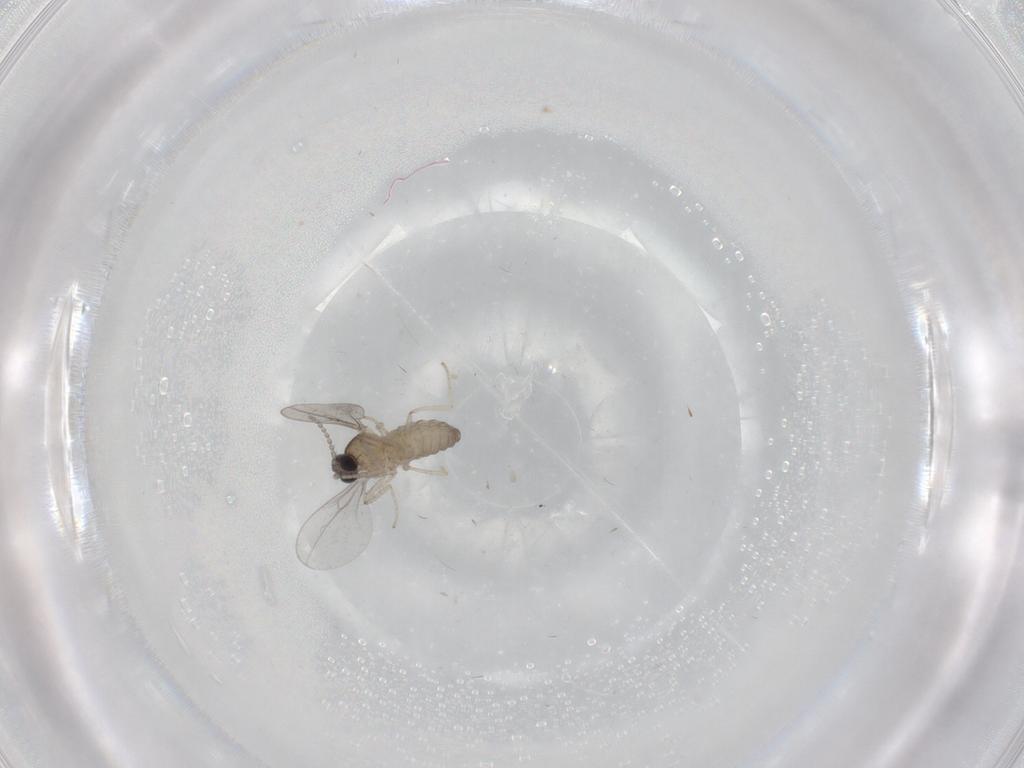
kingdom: Animalia
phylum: Arthropoda
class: Insecta
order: Diptera
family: Cecidomyiidae
